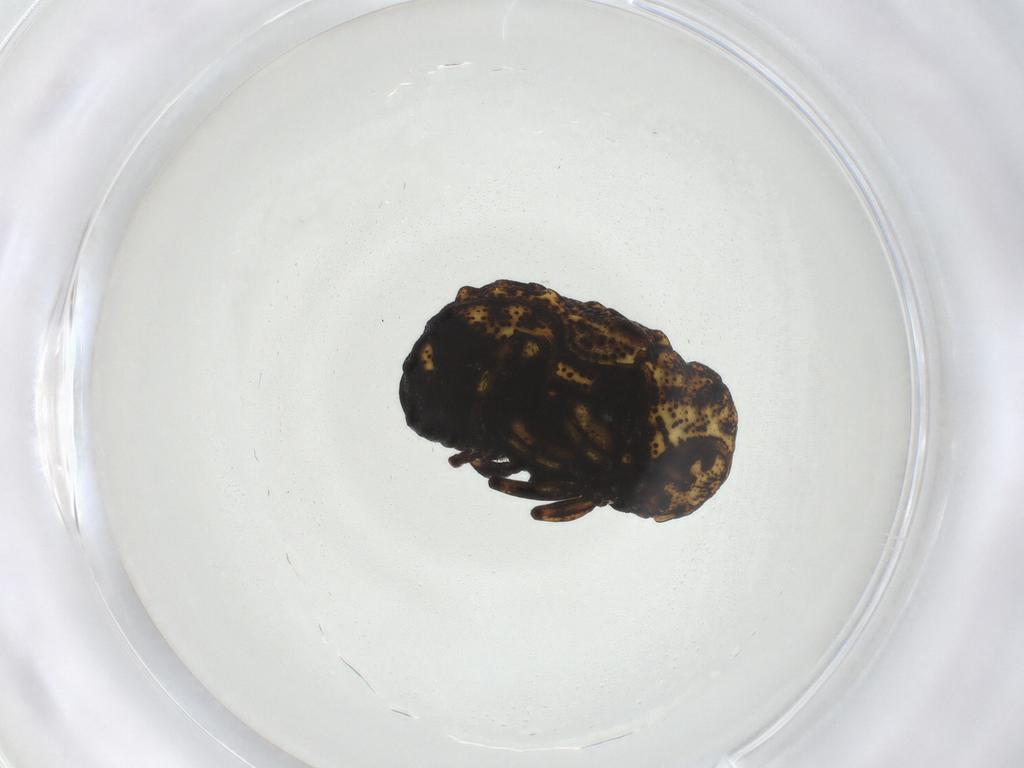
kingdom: Animalia
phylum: Arthropoda
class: Insecta
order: Coleoptera
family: Chrysomelidae
